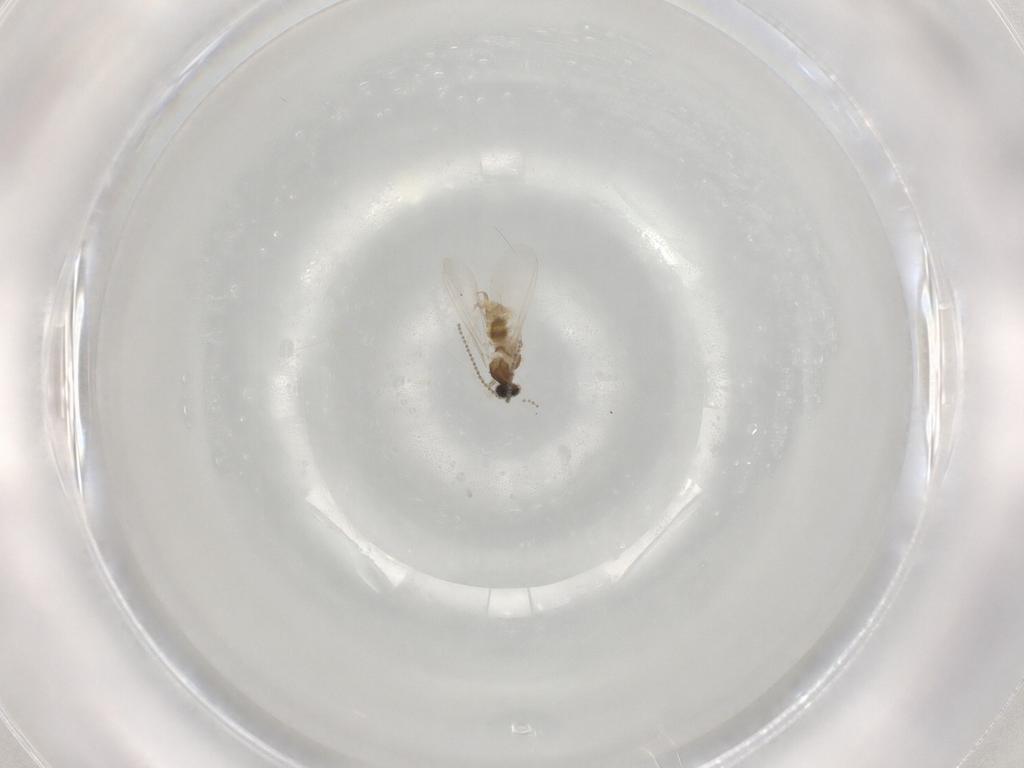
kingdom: Animalia
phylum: Arthropoda
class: Insecta
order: Diptera
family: Cecidomyiidae
